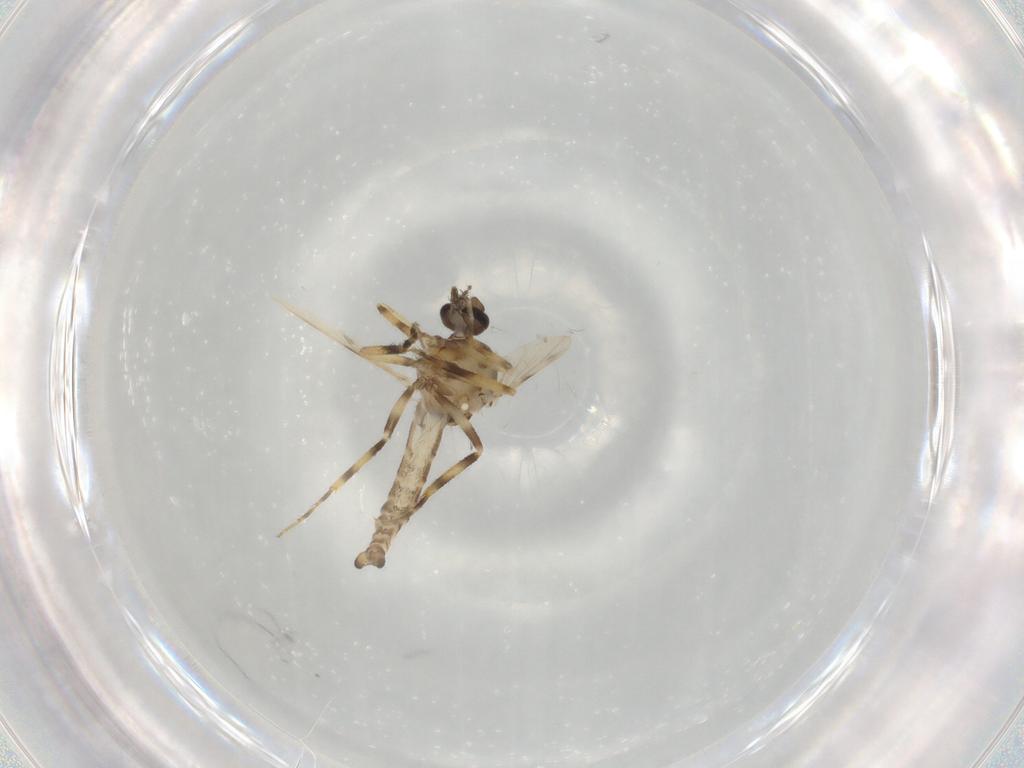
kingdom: Animalia
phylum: Arthropoda
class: Insecta
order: Diptera
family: Ceratopogonidae
